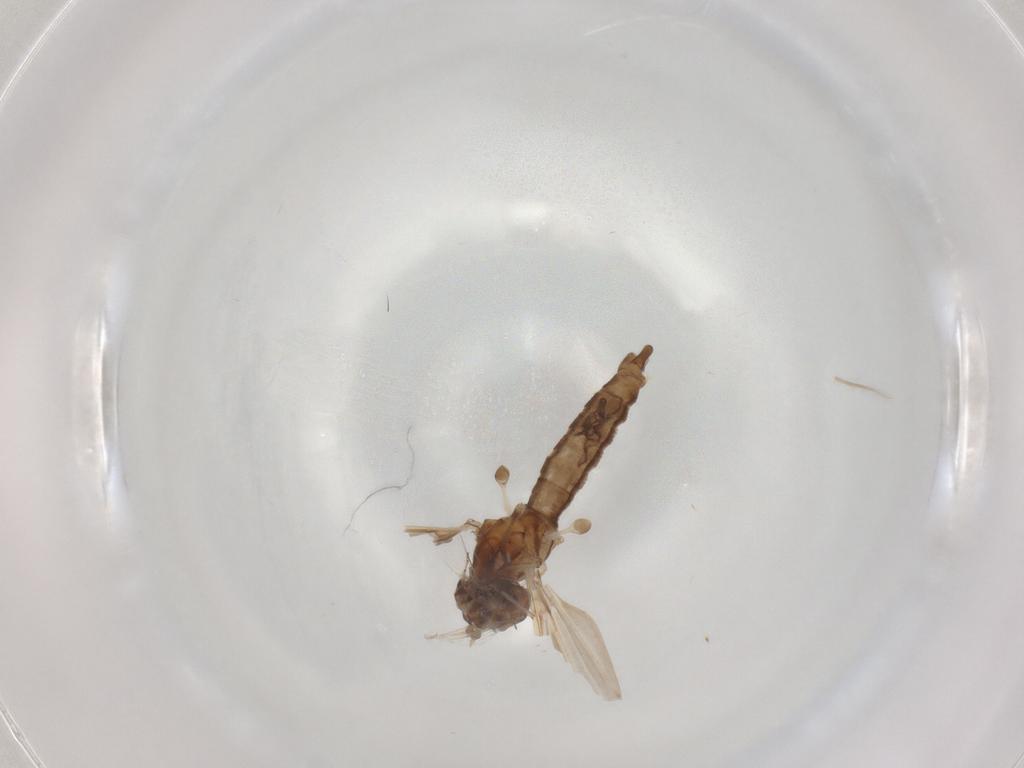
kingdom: Animalia
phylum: Arthropoda
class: Insecta
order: Diptera
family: Ceratopogonidae
